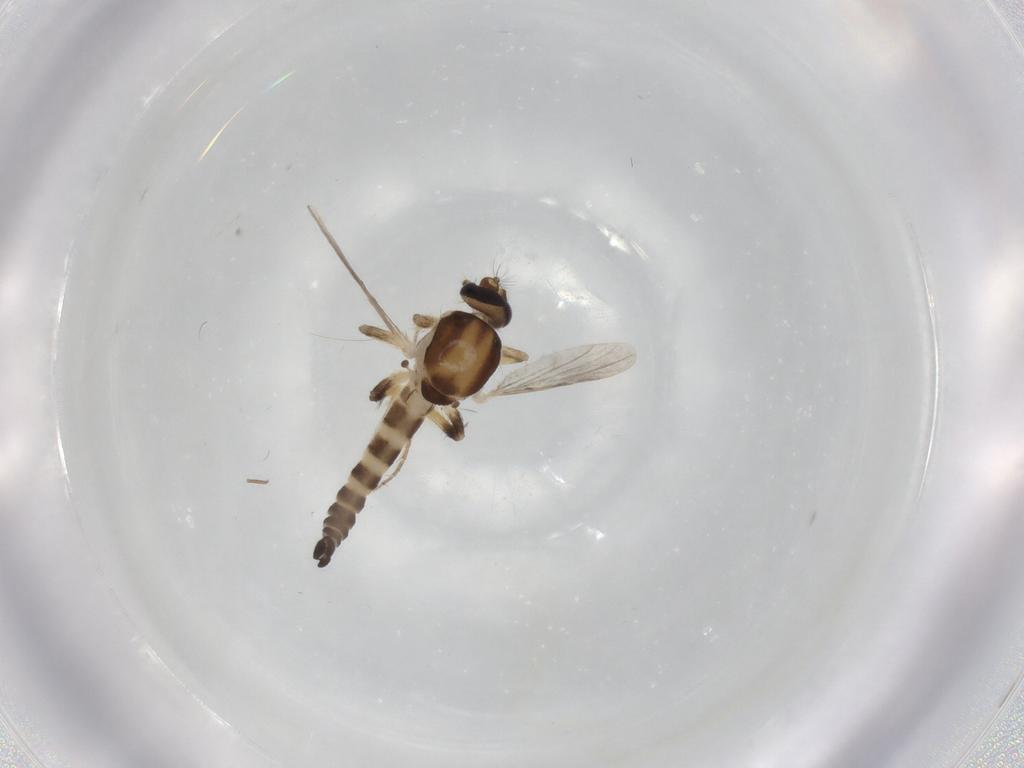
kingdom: Animalia
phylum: Arthropoda
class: Insecta
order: Diptera
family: Ceratopogonidae
